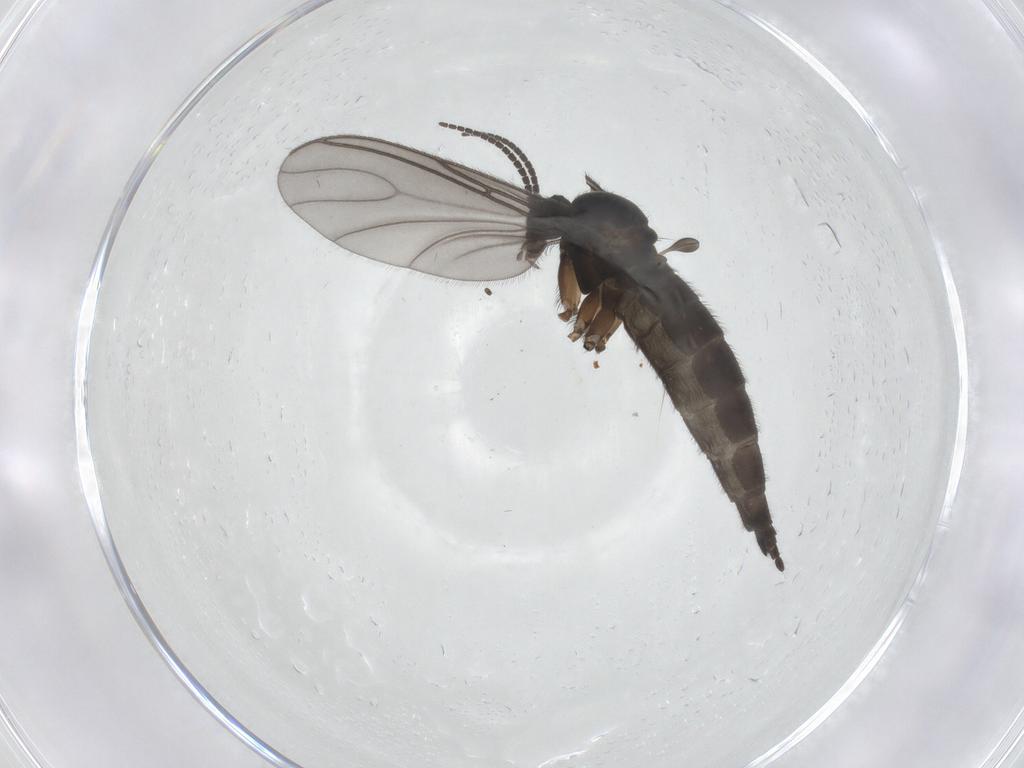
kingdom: Animalia
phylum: Arthropoda
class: Insecta
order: Diptera
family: Sciaridae
